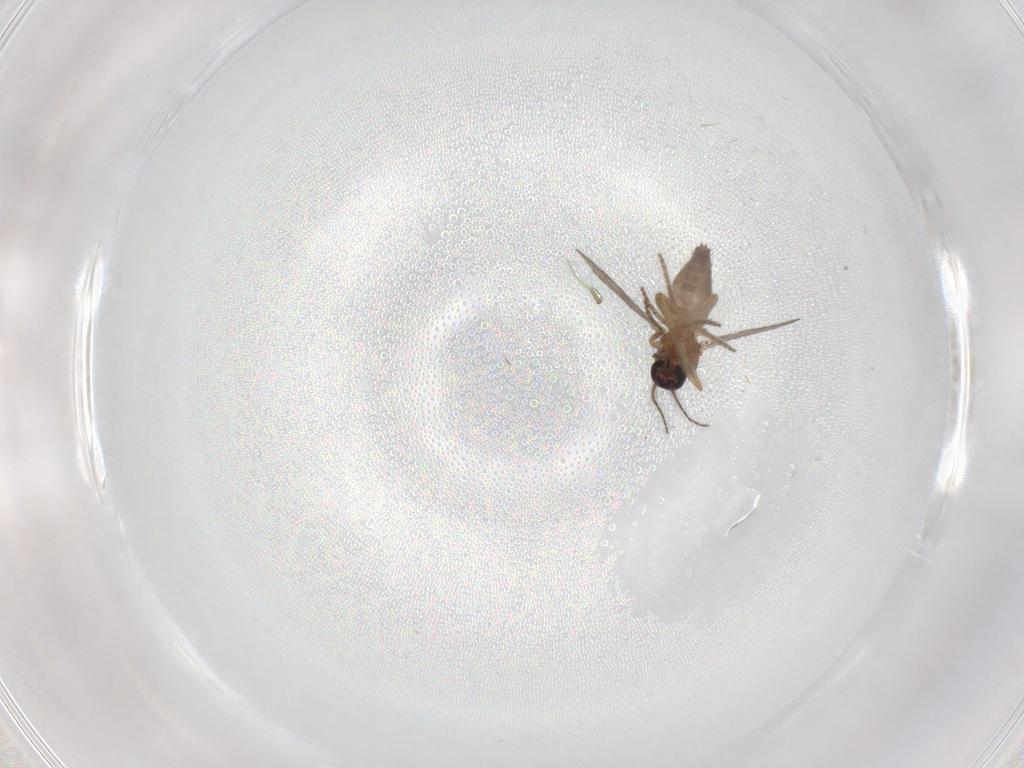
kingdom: Animalia
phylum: Arthropoda
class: Insecta
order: Diptera
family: Ceratopogonidae
